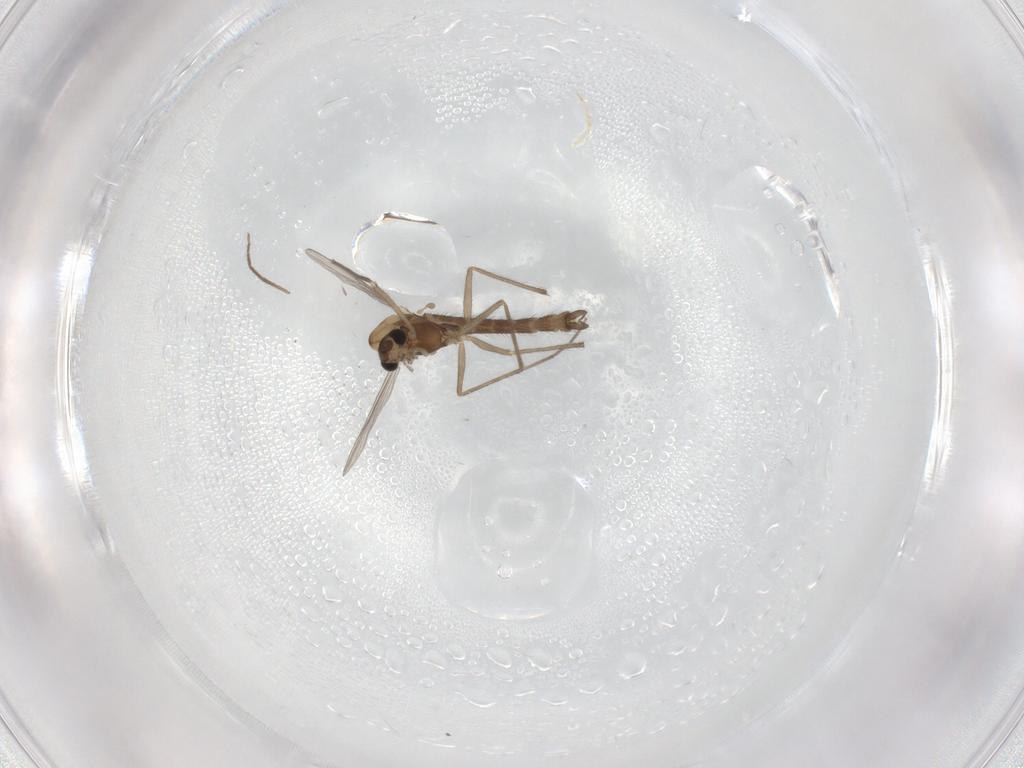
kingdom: Animalia
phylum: Arthropoda
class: Insecta
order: Diptera
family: Chironomidae
